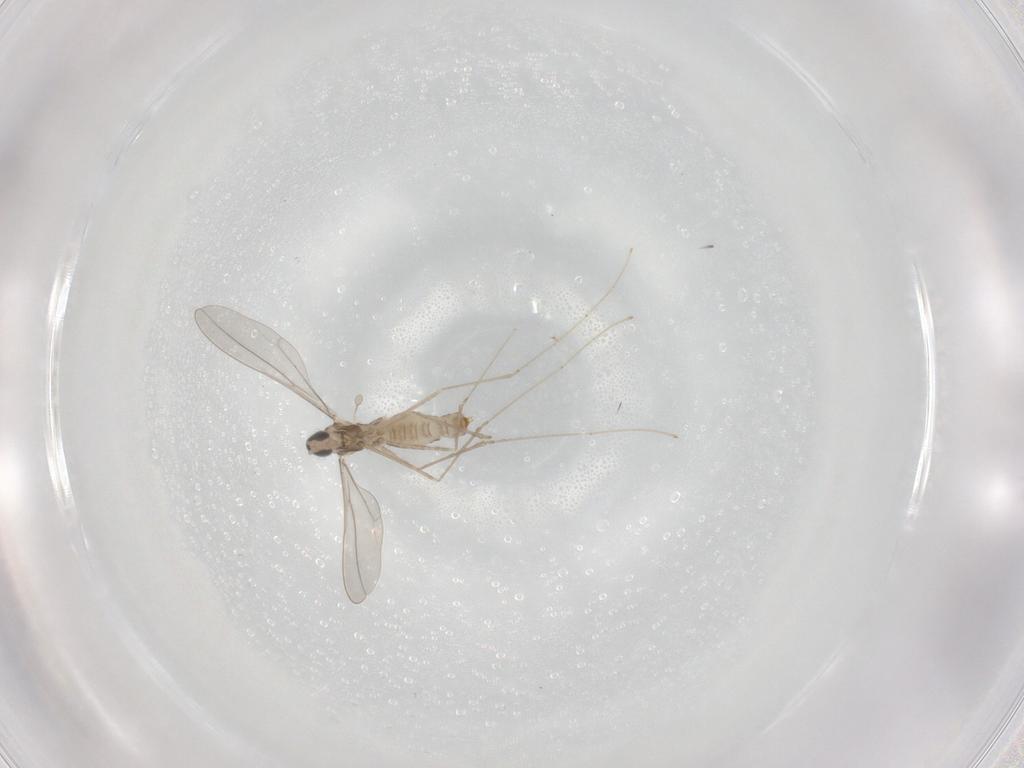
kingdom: Animalia
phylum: Arthropoda
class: Insecta
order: Diptera
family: Cecidomyiidae
